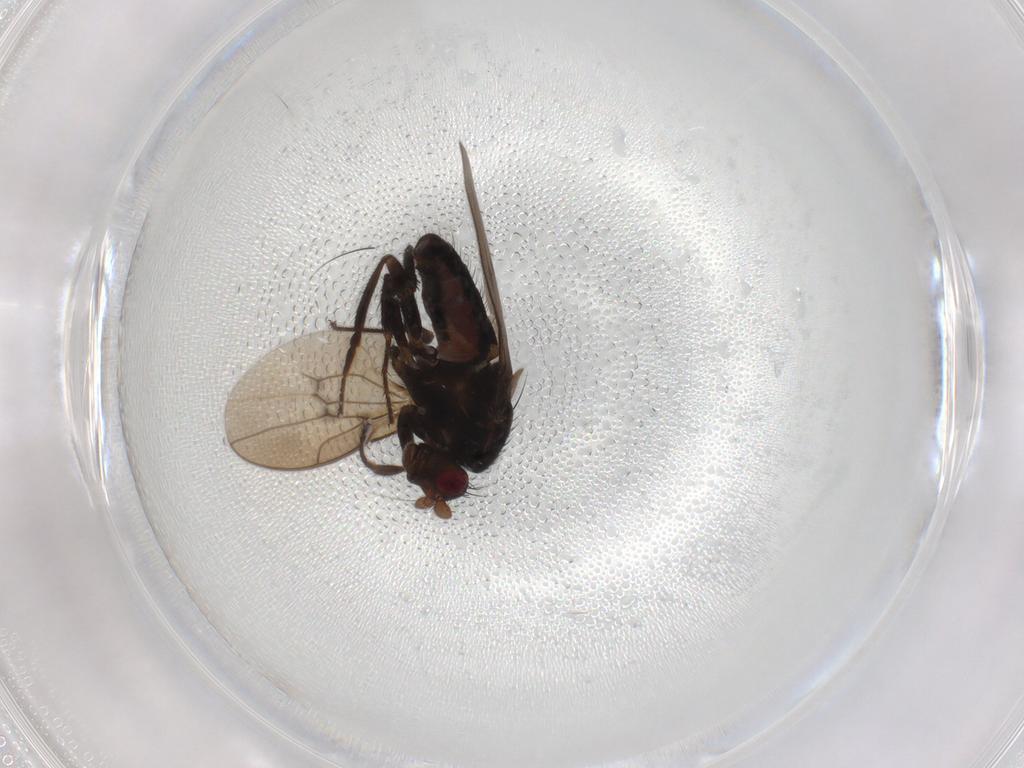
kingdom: Animalia
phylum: Arthropoda
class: Insecta
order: Diptera
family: Sphaeroceridae
